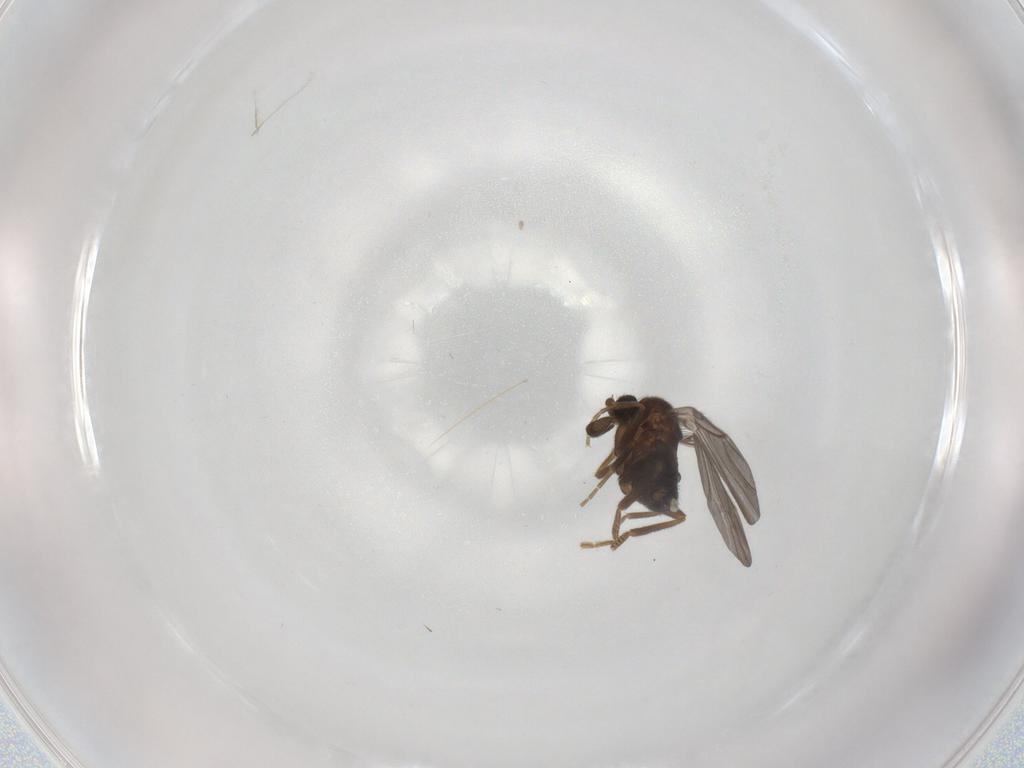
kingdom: Animalia
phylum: Arthropoda
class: Insecta
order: Diptera
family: Phoridae
